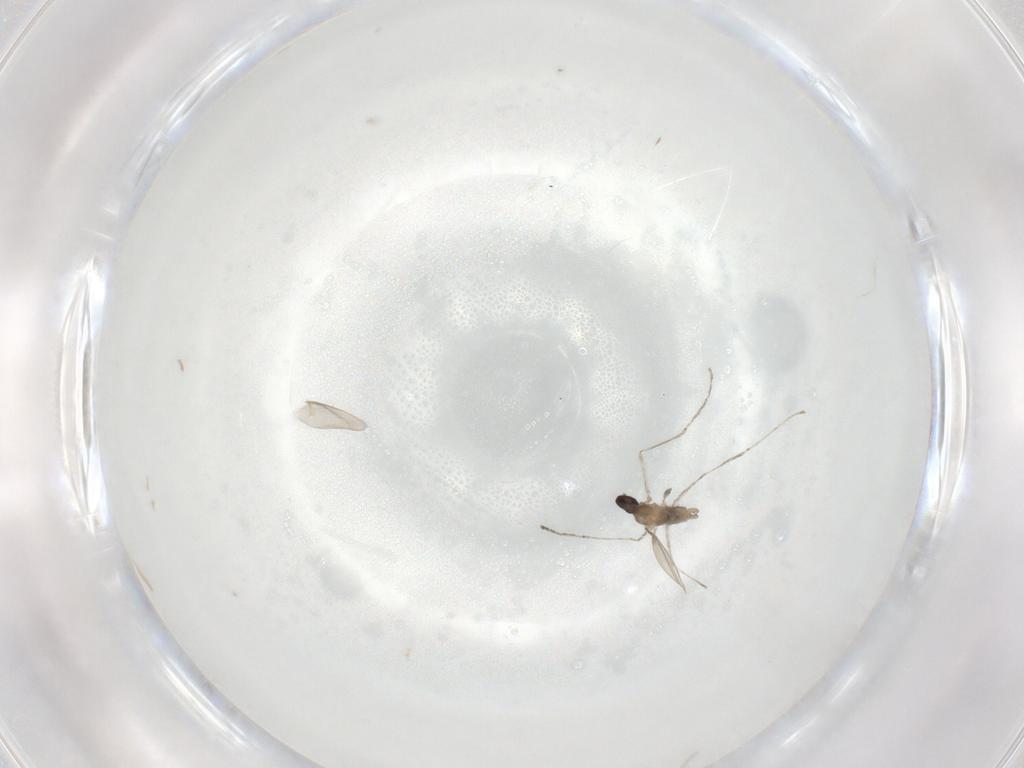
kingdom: Animalia
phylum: Arthropoda
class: Insecta
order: Diptera
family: Cecidomyiidae
